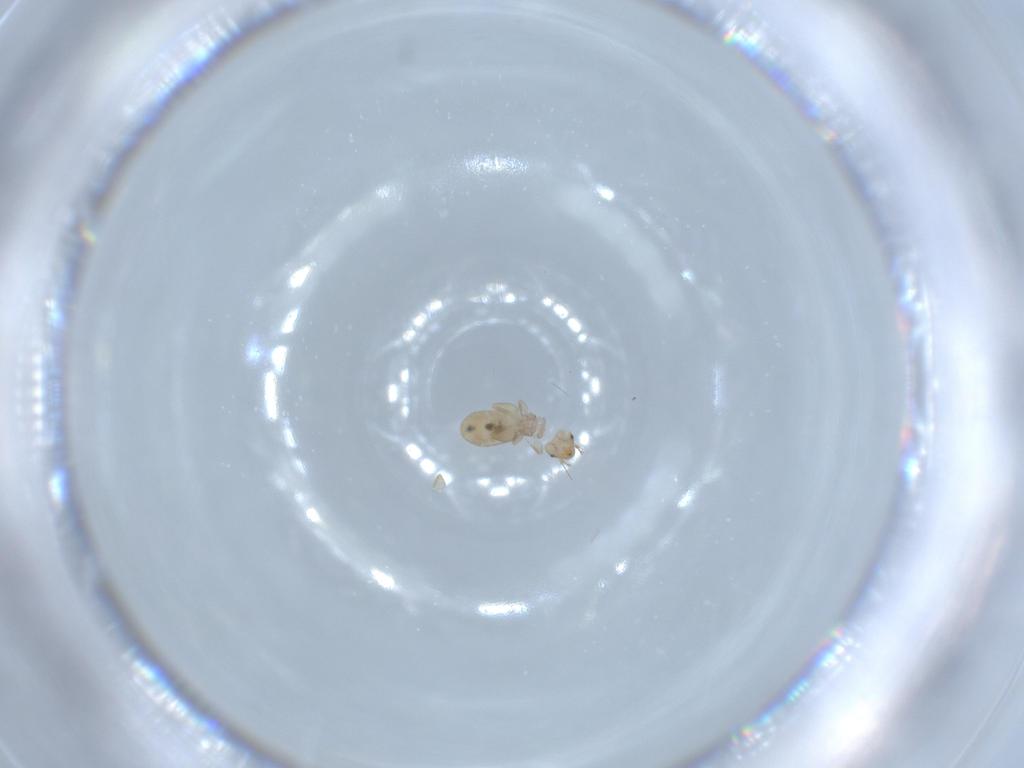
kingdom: Animalia
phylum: Arthropoda
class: Insecta
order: Psocodea
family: Liposcelididae
